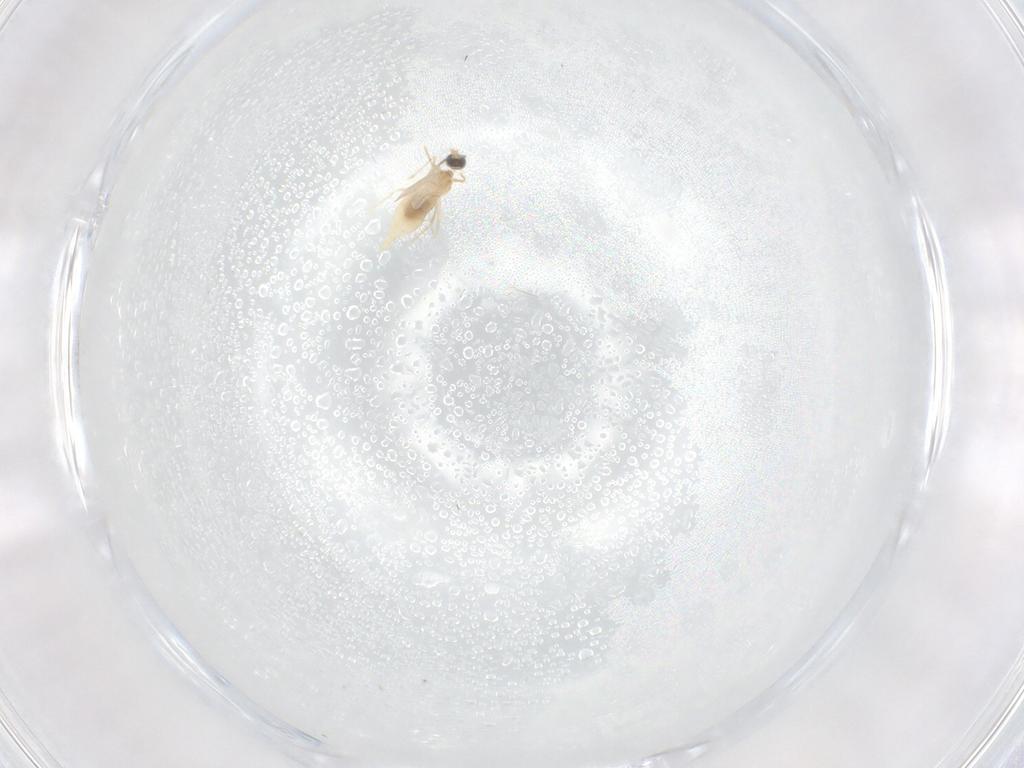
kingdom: Animalia
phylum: Arthropoda
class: Insecta
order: Diptera
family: Cecidomyiidae
